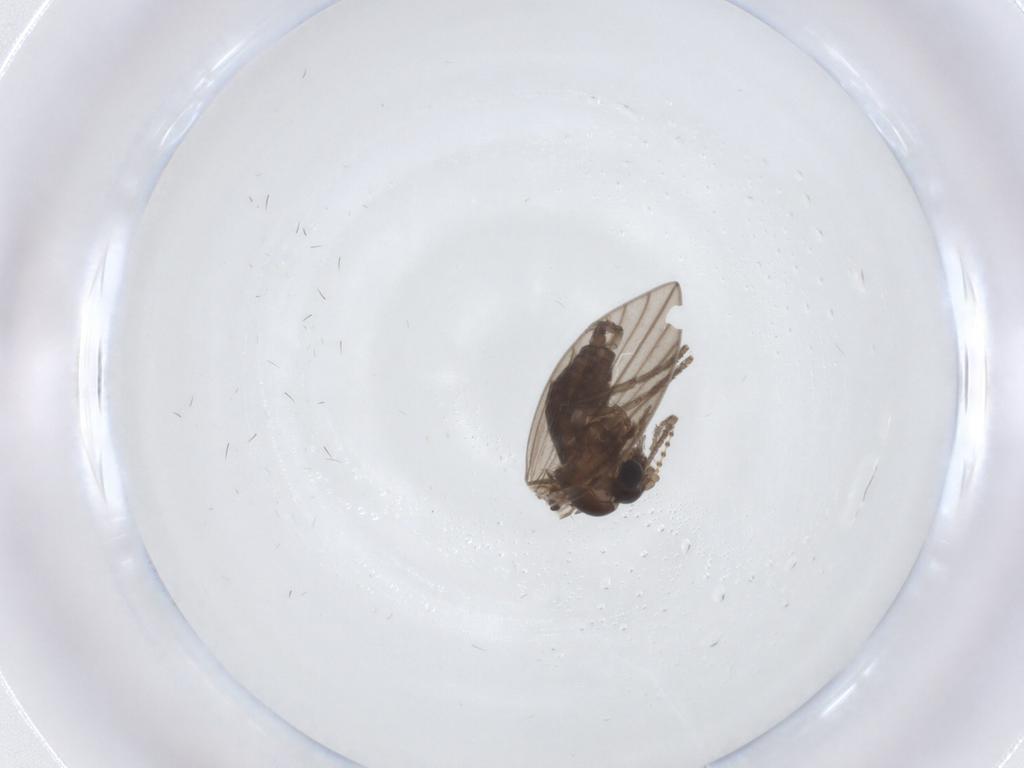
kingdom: Animalia
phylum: Arthropoda
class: Insecta
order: Diptera
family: Psychodidae
